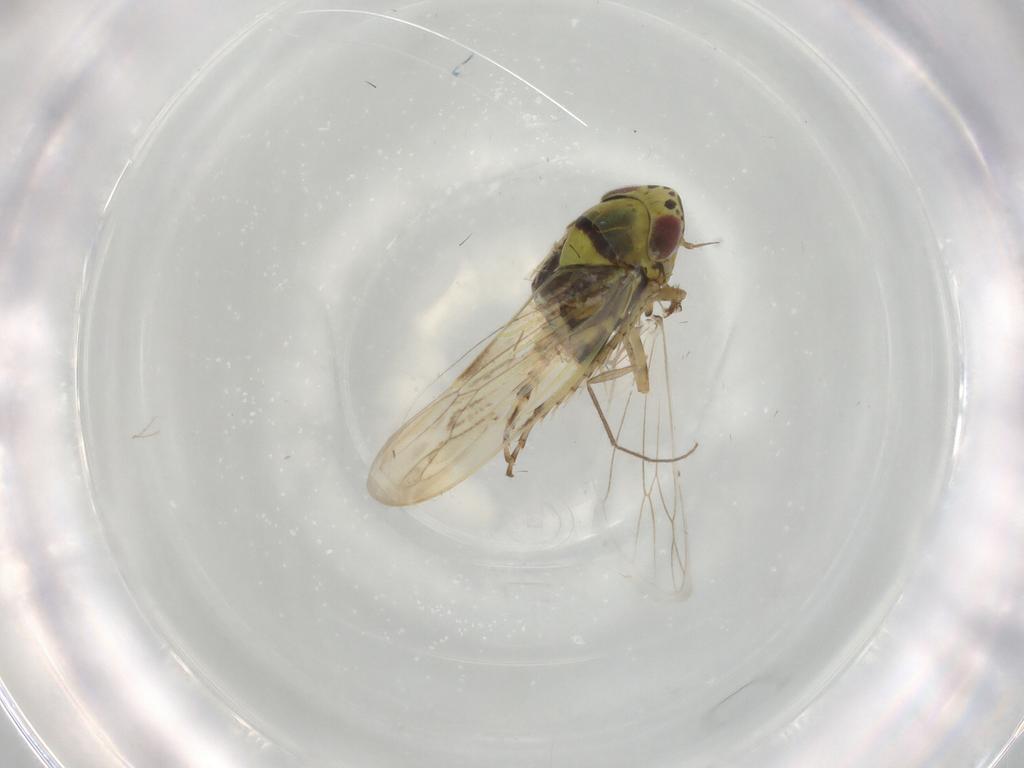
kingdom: Animalia
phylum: Arthropoda
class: Insecta
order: Hemiptera
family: Cicadellidae
